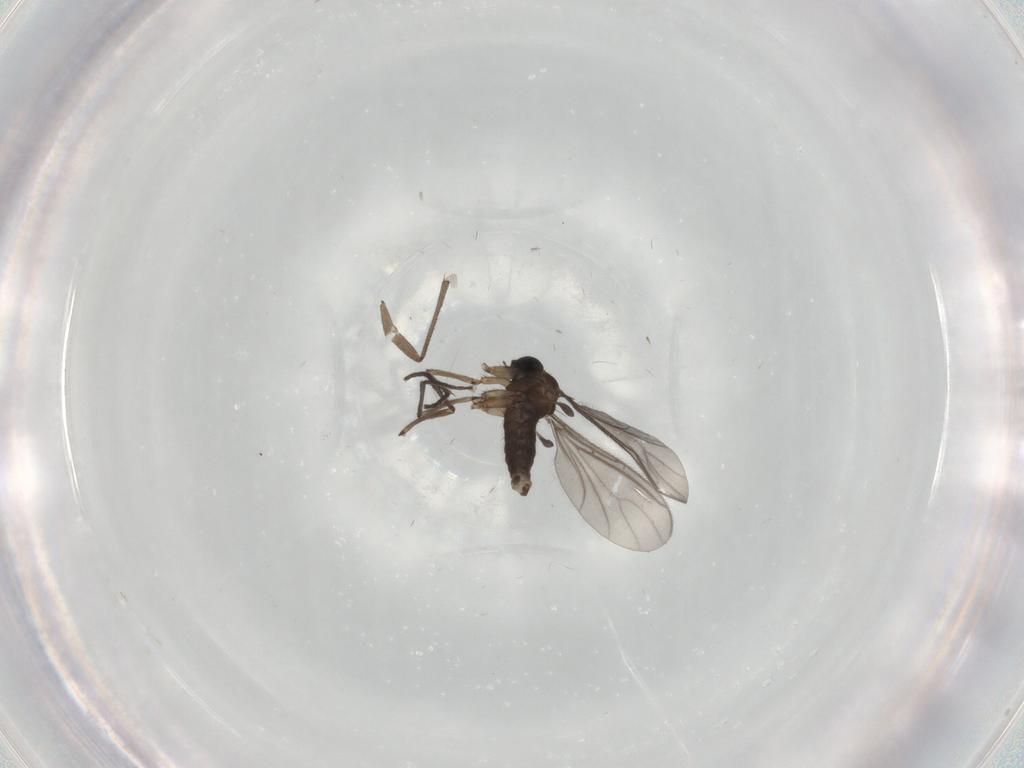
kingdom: Animalia
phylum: Arthropoda
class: Insecta
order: Diptera
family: Sciaridae
